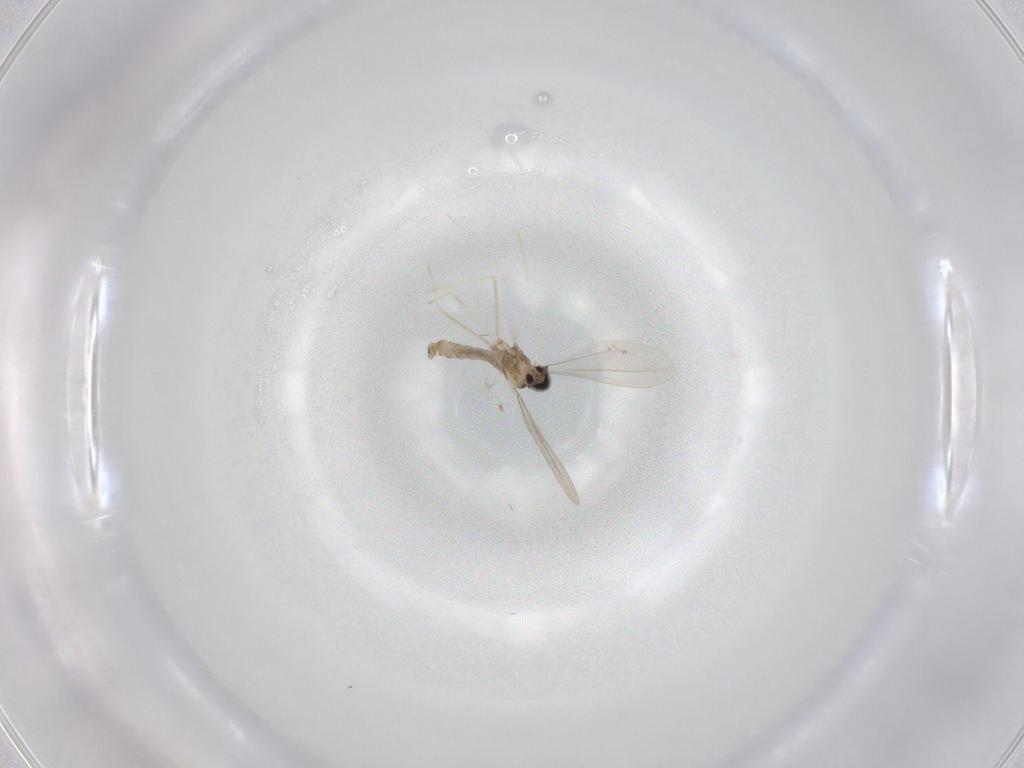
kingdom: Animalia
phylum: Arthropoda
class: Insecta
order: Diptera
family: Cecidomyiidae
